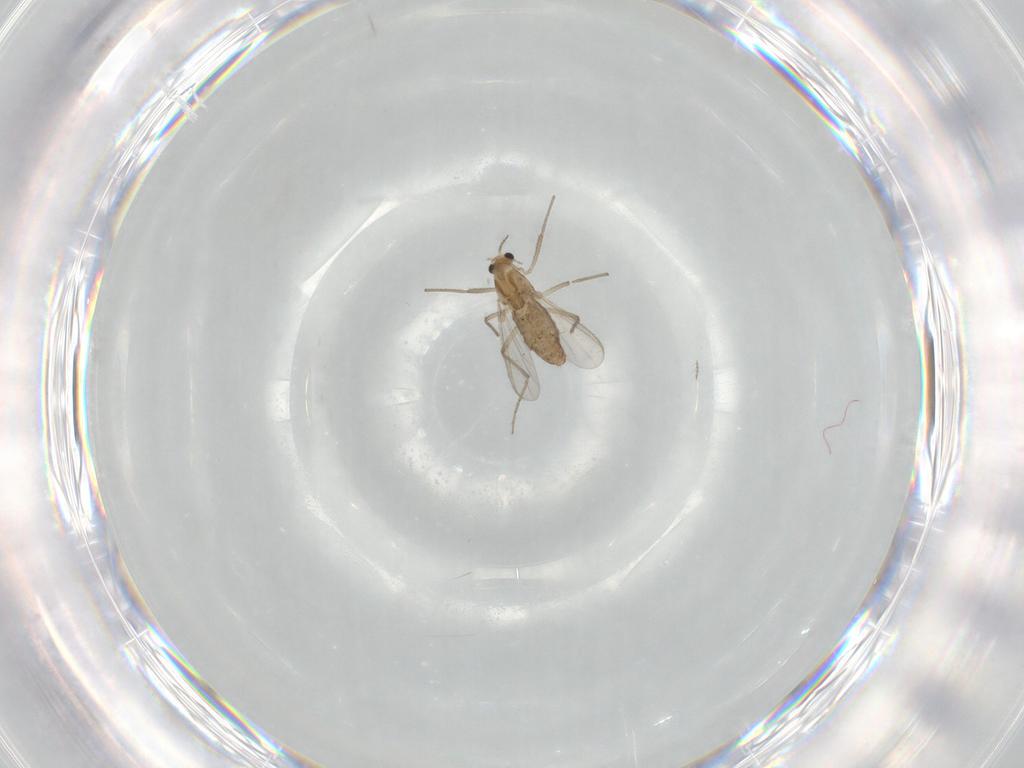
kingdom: Animalia
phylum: Arthropoda
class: Insecta
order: Diptera
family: Chironomidae
